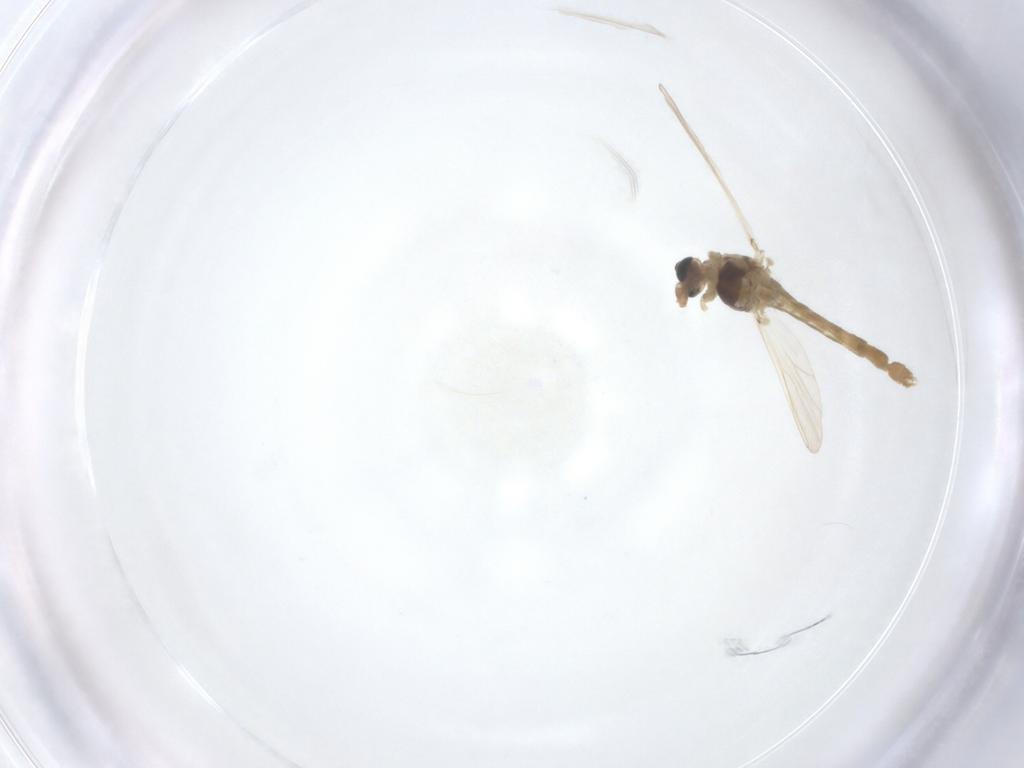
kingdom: Animalia
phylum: Arthropoda
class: Insecta
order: Diptera
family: Chironomidae
